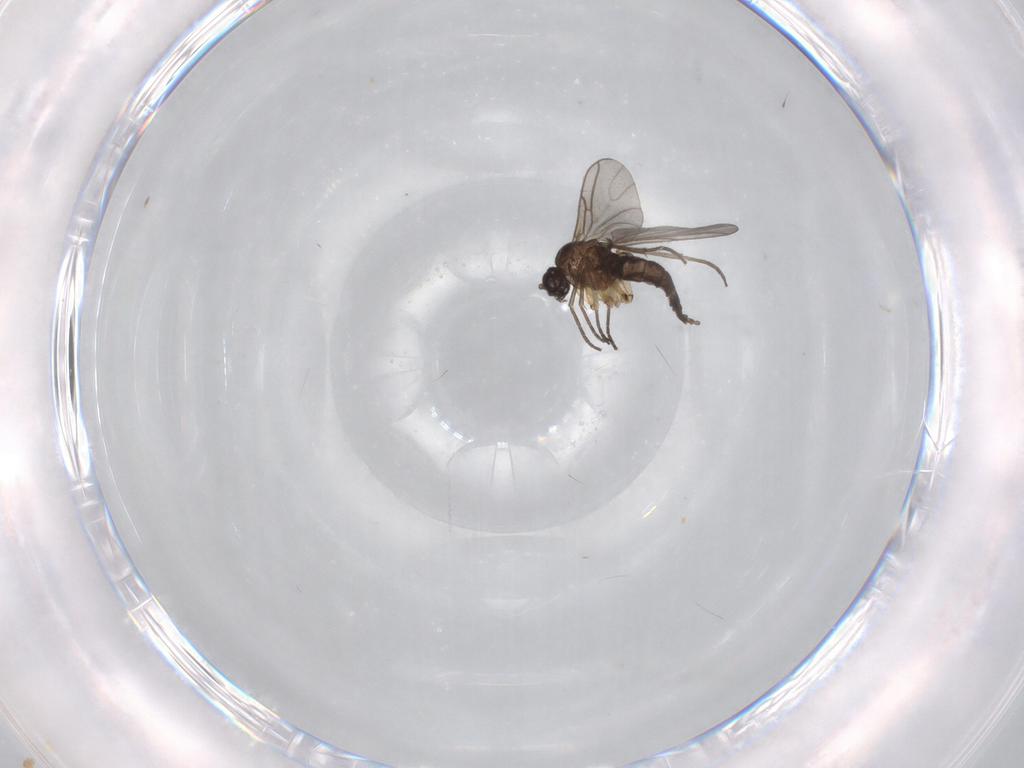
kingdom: Animalia
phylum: Arthropoda
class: Insecta
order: Diptera
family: Sciaridae
